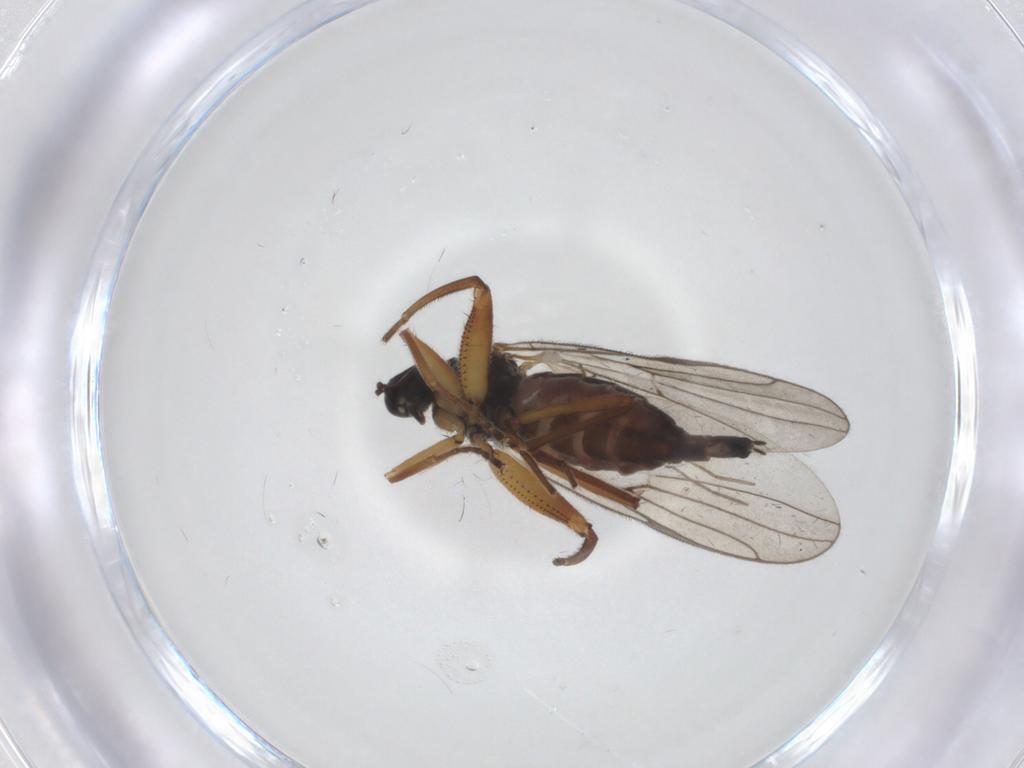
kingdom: Animalia
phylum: Arthropoda
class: Insecta
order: Diptera
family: Hybotidae
